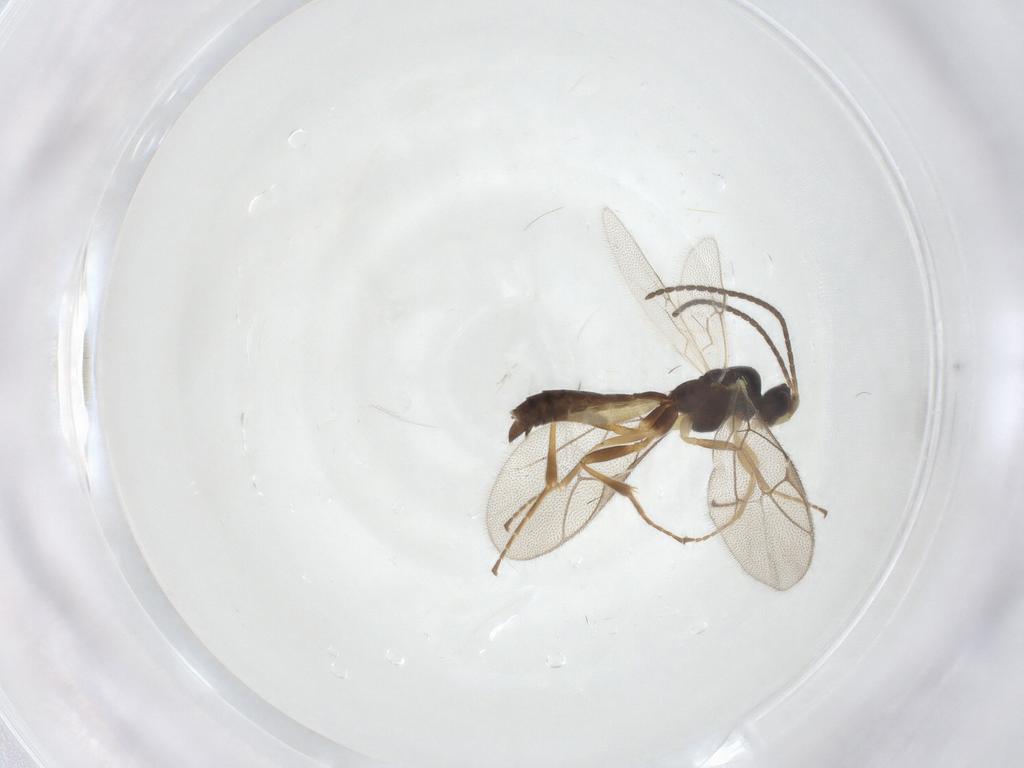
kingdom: Animalia
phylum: Arthropoda
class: Insecta
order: Hymenoptera
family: Ichneumonidae
